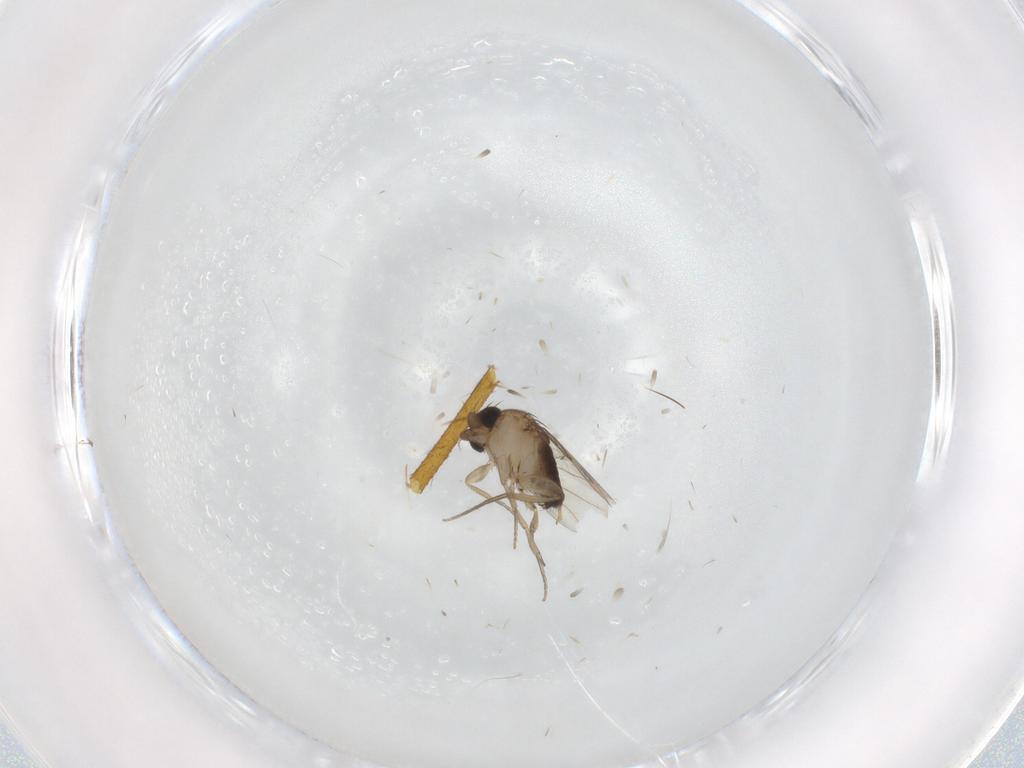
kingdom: Animalia
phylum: Arthropoda
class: Insecta
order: Diptera
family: Phoridae
